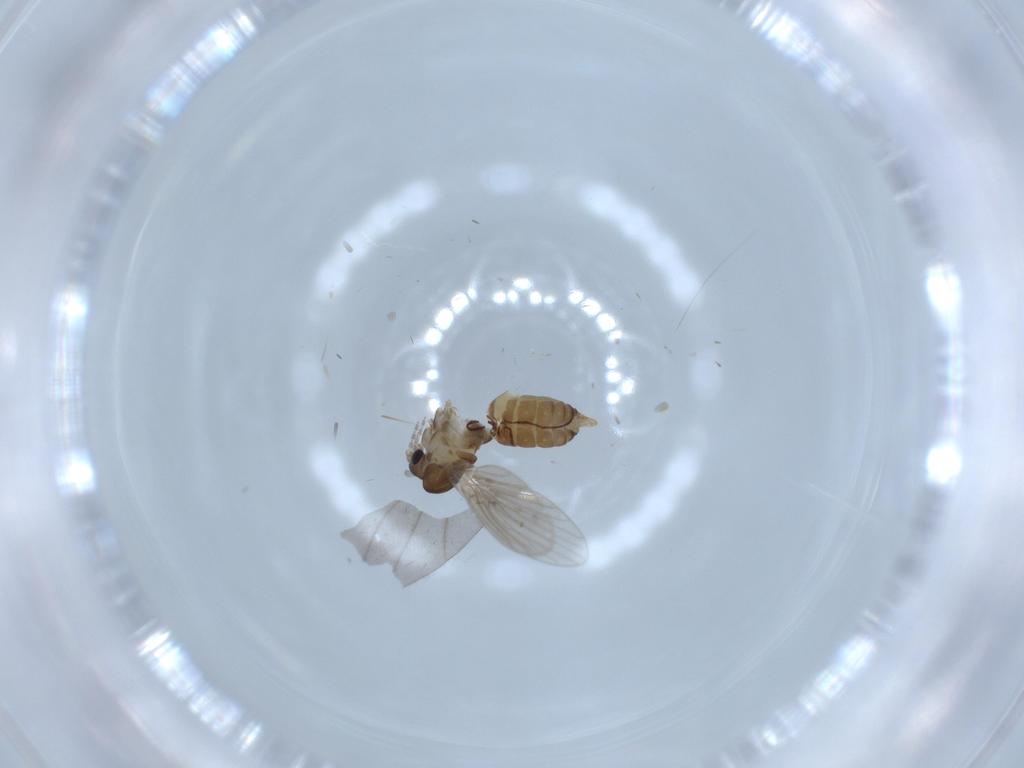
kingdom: Animalia
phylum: Arthropoda
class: Insecta
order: Diptera
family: Psychodidae
